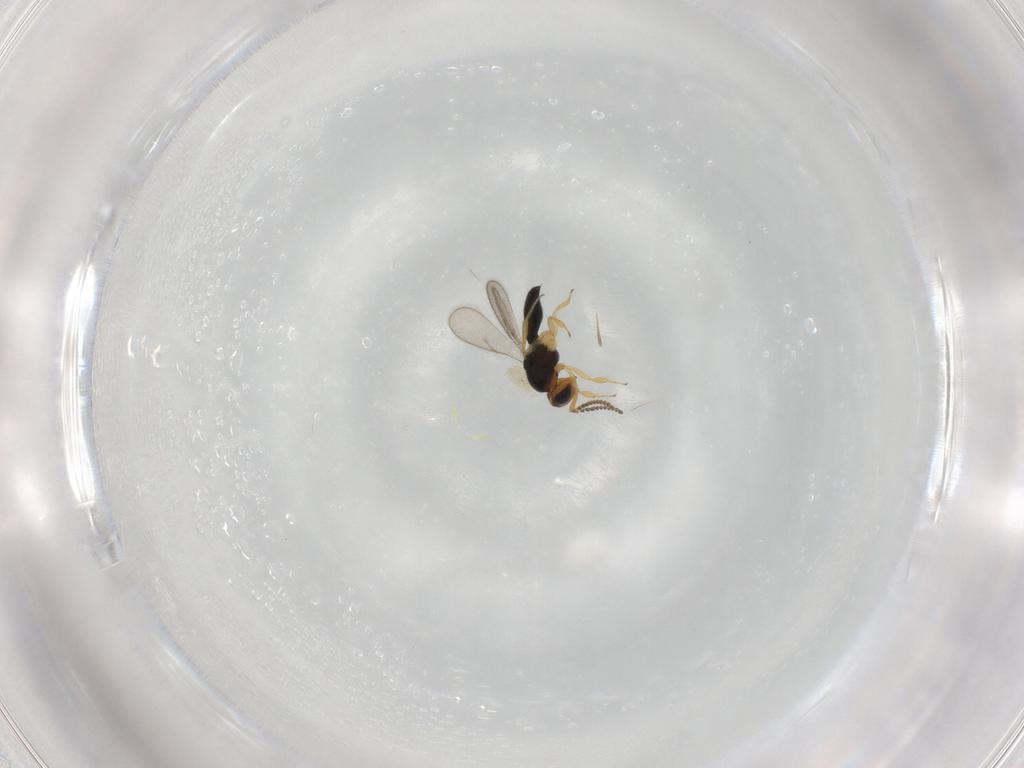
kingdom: Animalia
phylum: Arthropoda
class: Insecta
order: Hymenoptera
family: Scelionidae
